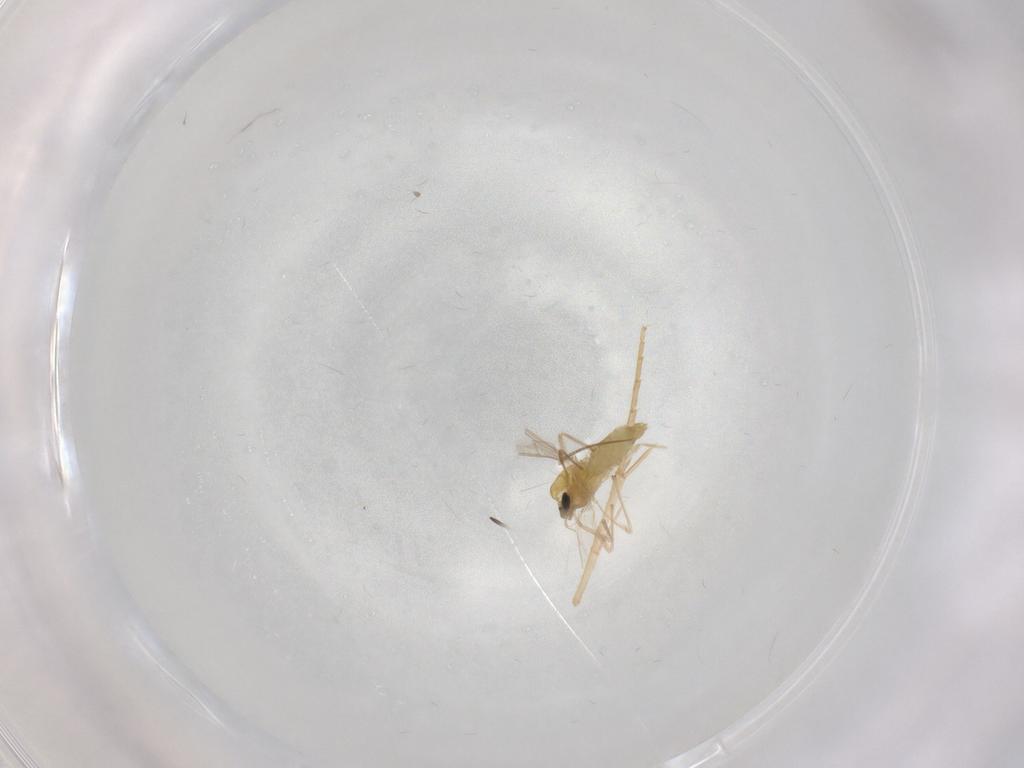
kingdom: Animalia
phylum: Arthropoda
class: Insecta
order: Diptera
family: Chironomidae
